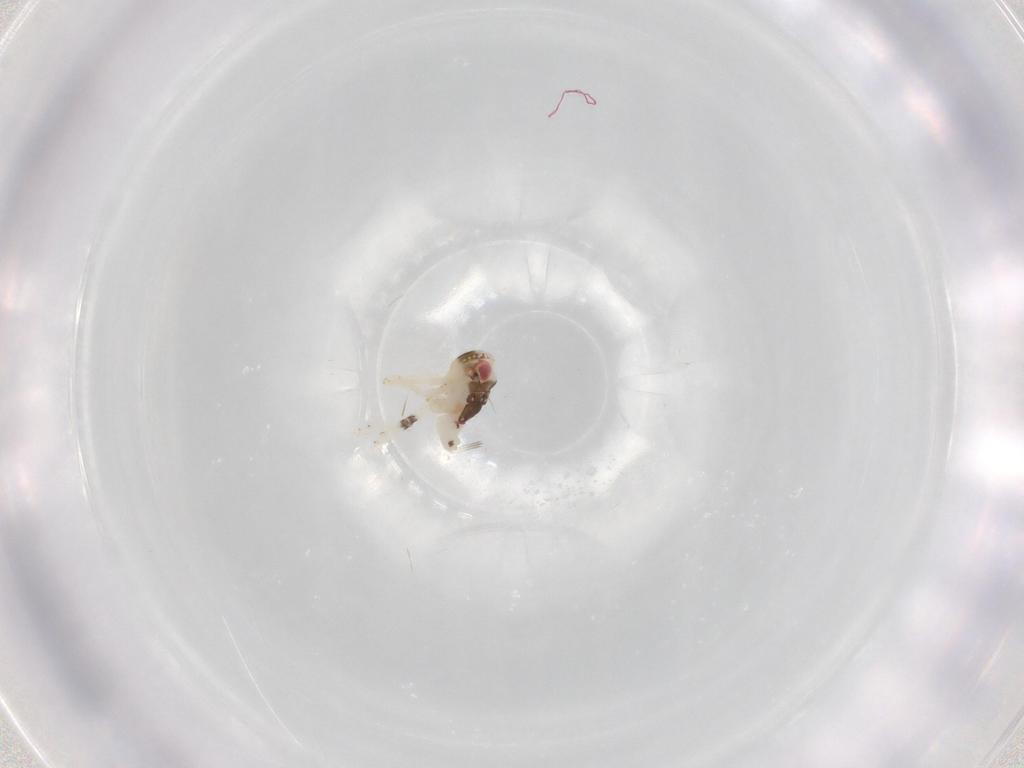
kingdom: Animalia
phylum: Arthropoda
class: Insecta
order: Hemiptera
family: Nogodinidae
